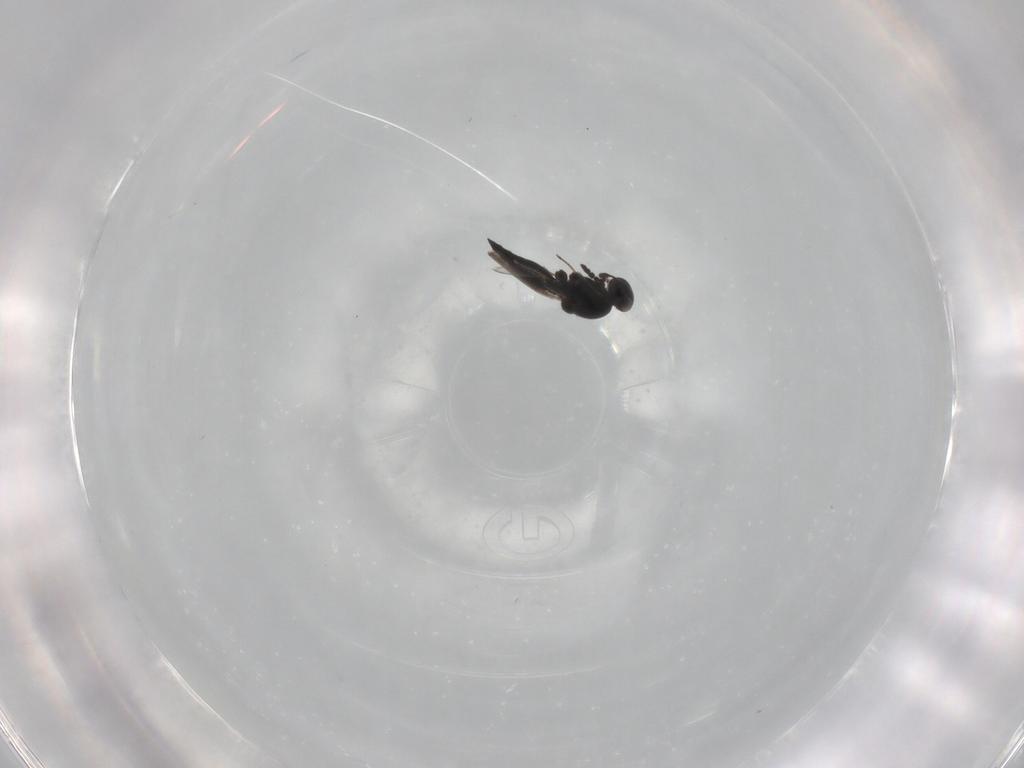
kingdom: Animalia
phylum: Arthropoda
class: Insecta
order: Hymenoptera
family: Platygastridae
